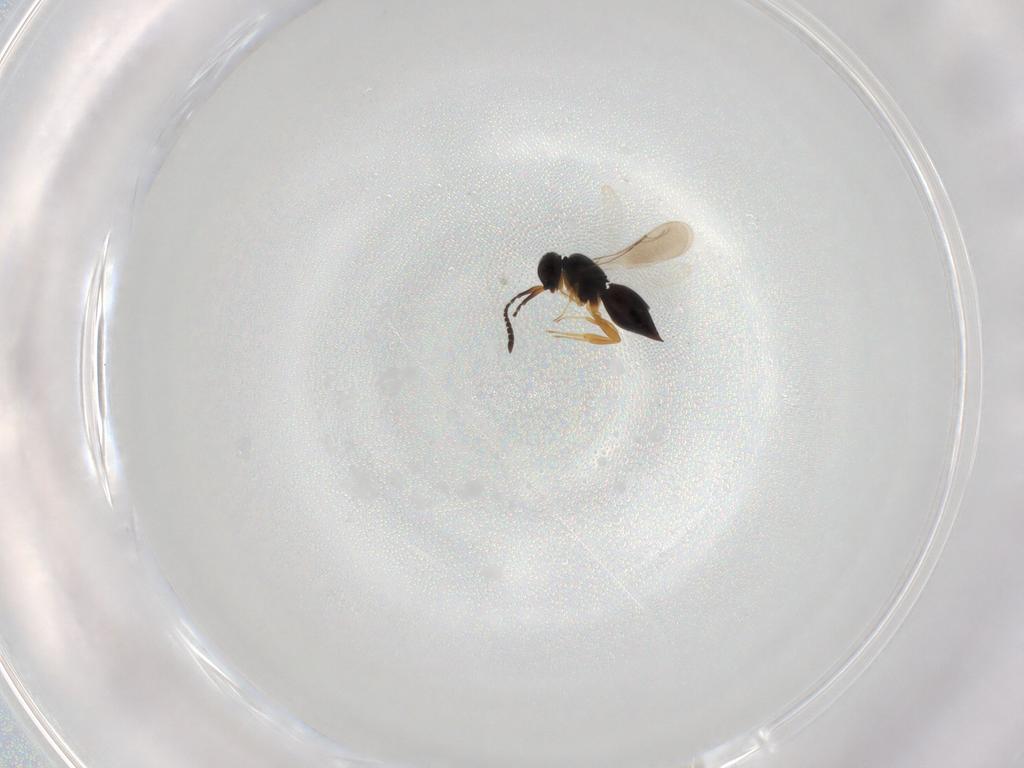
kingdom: Animalia
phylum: Arthropoda
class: Insecta
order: Hymenoptera
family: Ceraphronidae
